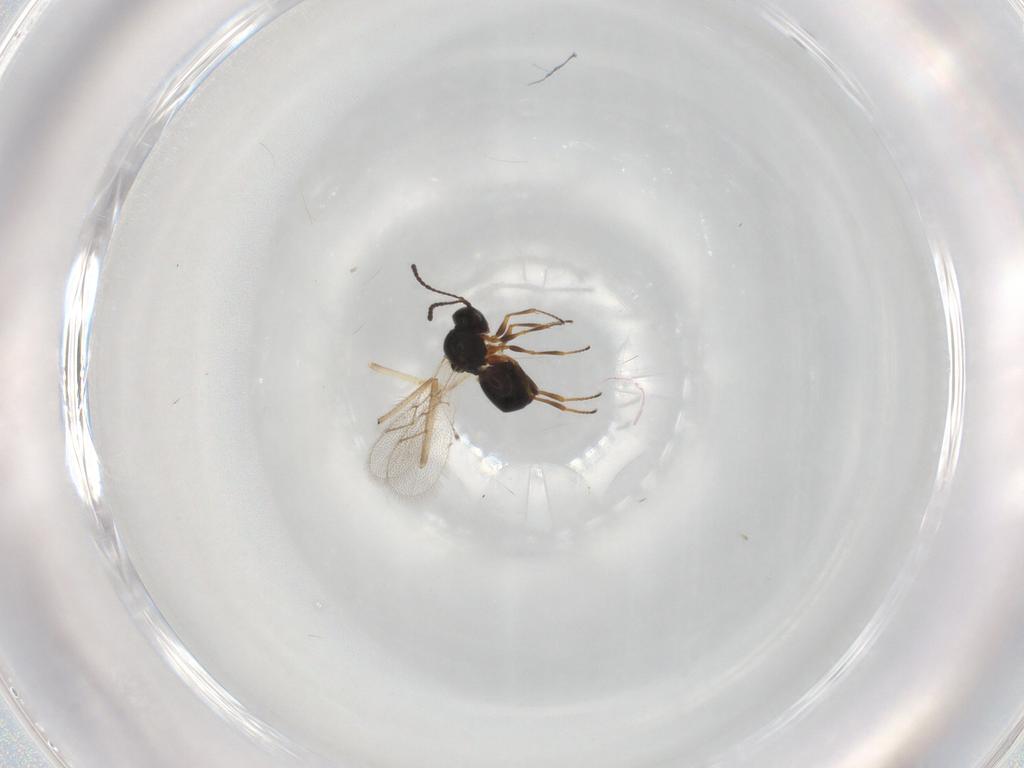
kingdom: Animalia
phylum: Arthropoda
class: Insecta
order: Hymenoptera
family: Figitidae
